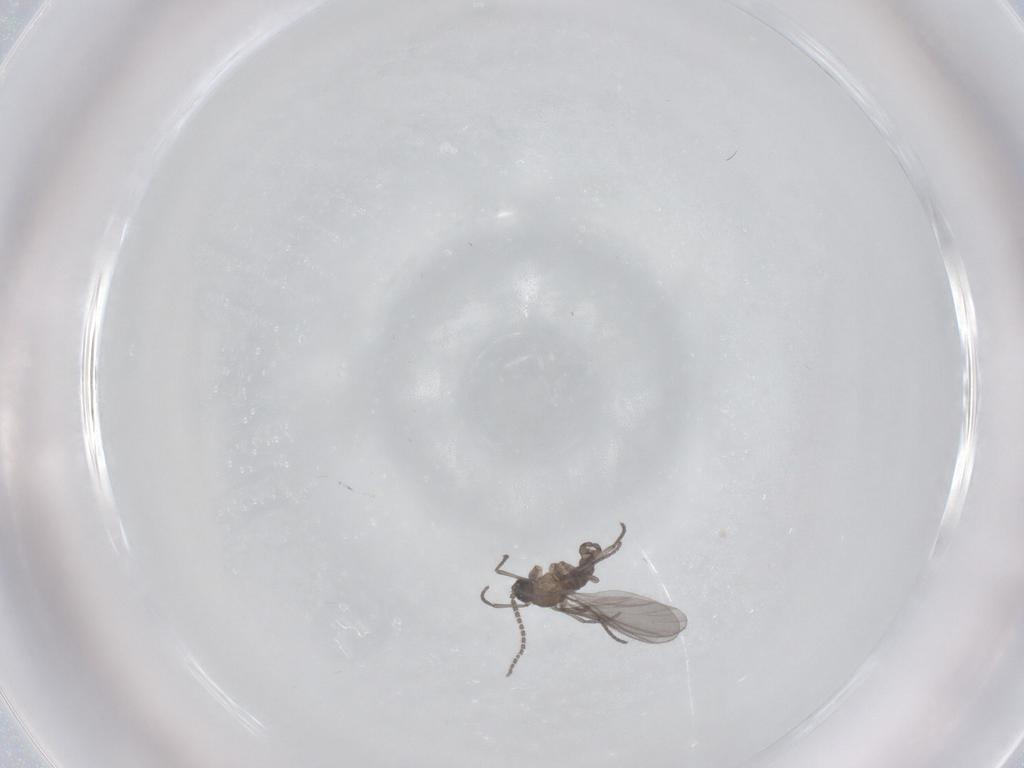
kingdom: Animalia
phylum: Arthropoda
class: Insecta
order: Diptera
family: Sciaridae
